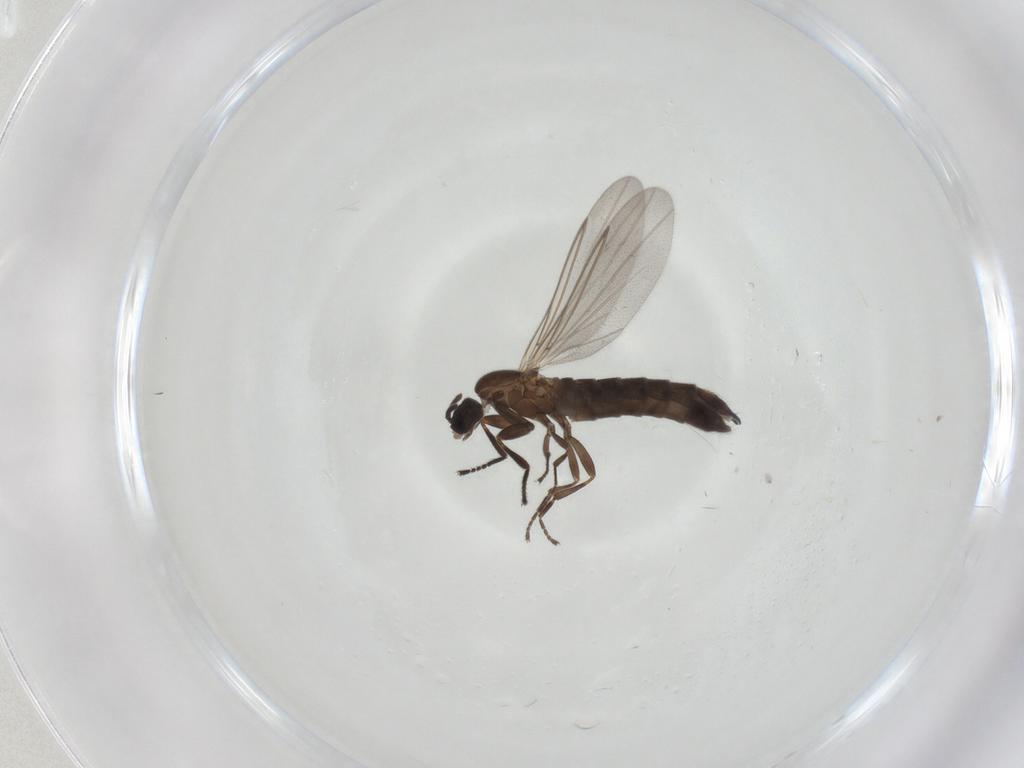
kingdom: Animalia
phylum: Arthropoda
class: Insecta
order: Diptera
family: Scatopsidae
